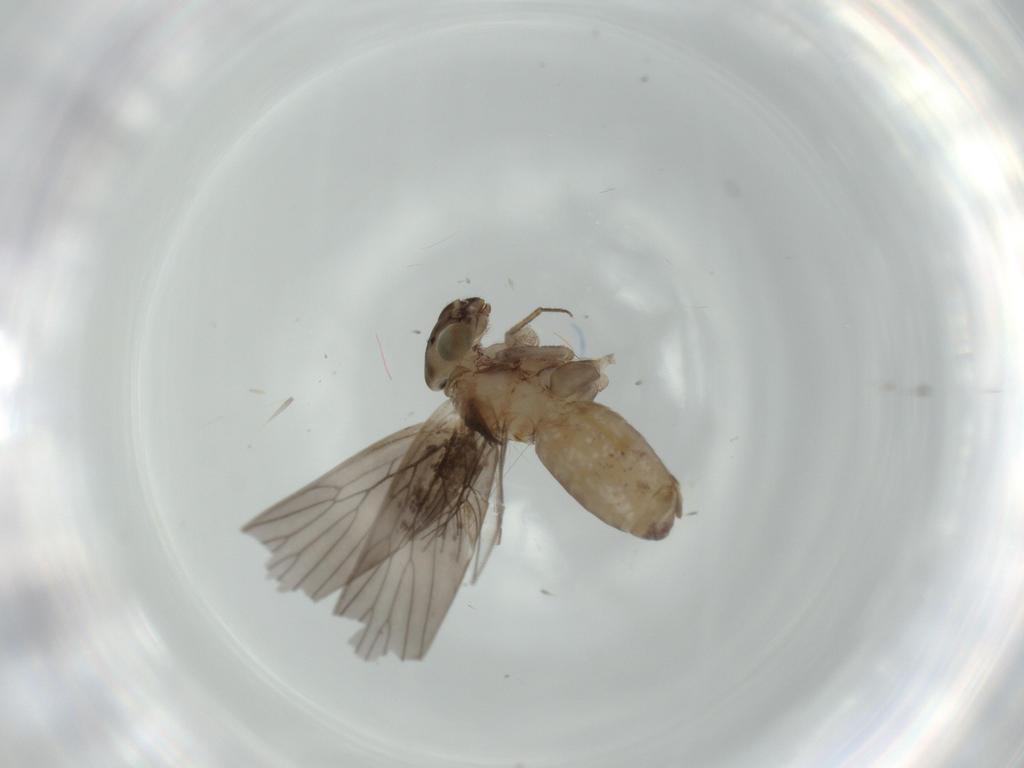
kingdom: Animalia
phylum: Arthropoda
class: Insecta
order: Psocodea
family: Lepidopsocidae
